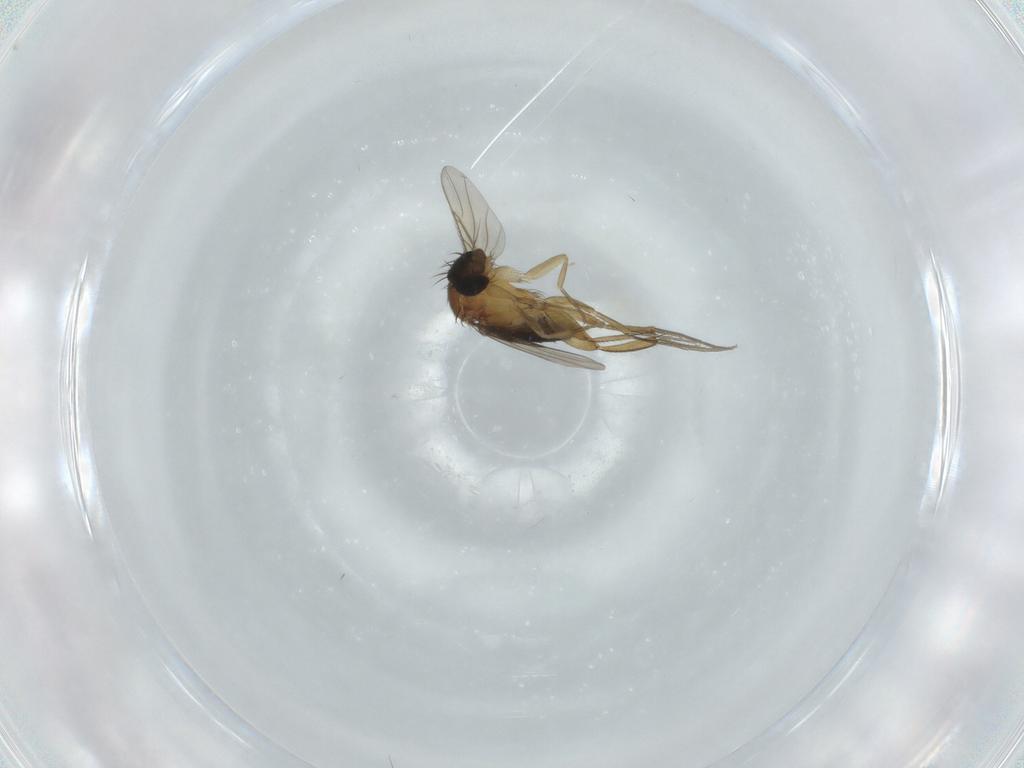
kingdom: Animalia
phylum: Arthropoda
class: Insecta
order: Diptera
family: Phoridae
